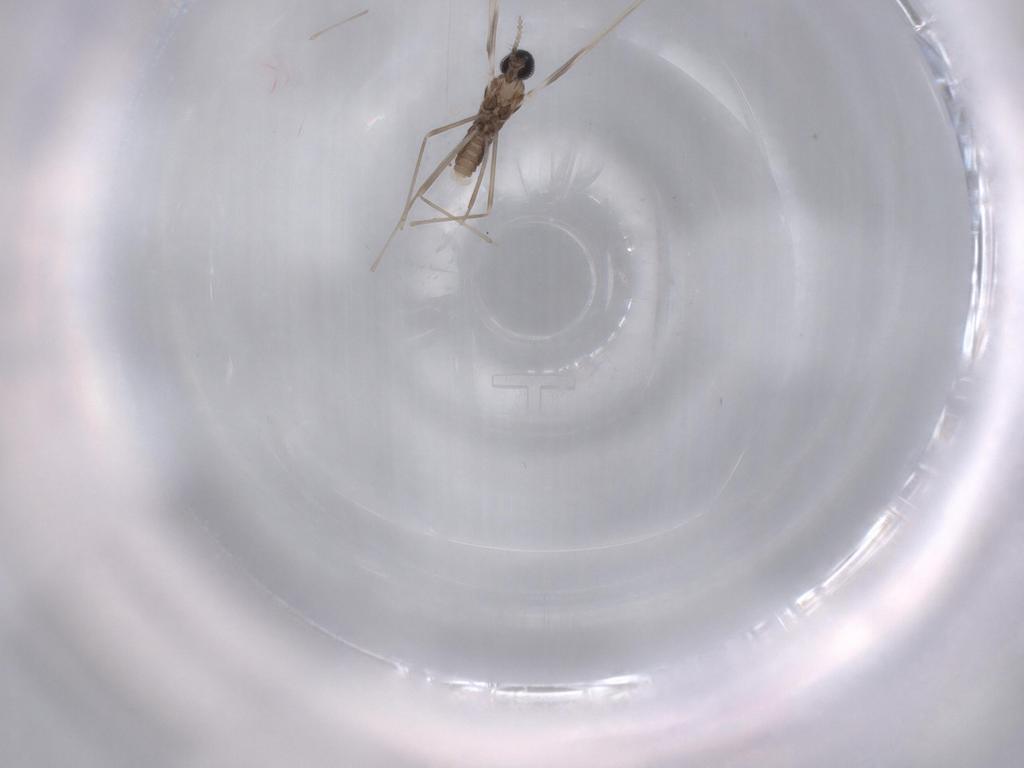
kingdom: Animalia
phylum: Arthropoda
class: Insecta
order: Diptera
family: Cecidomyiidae
